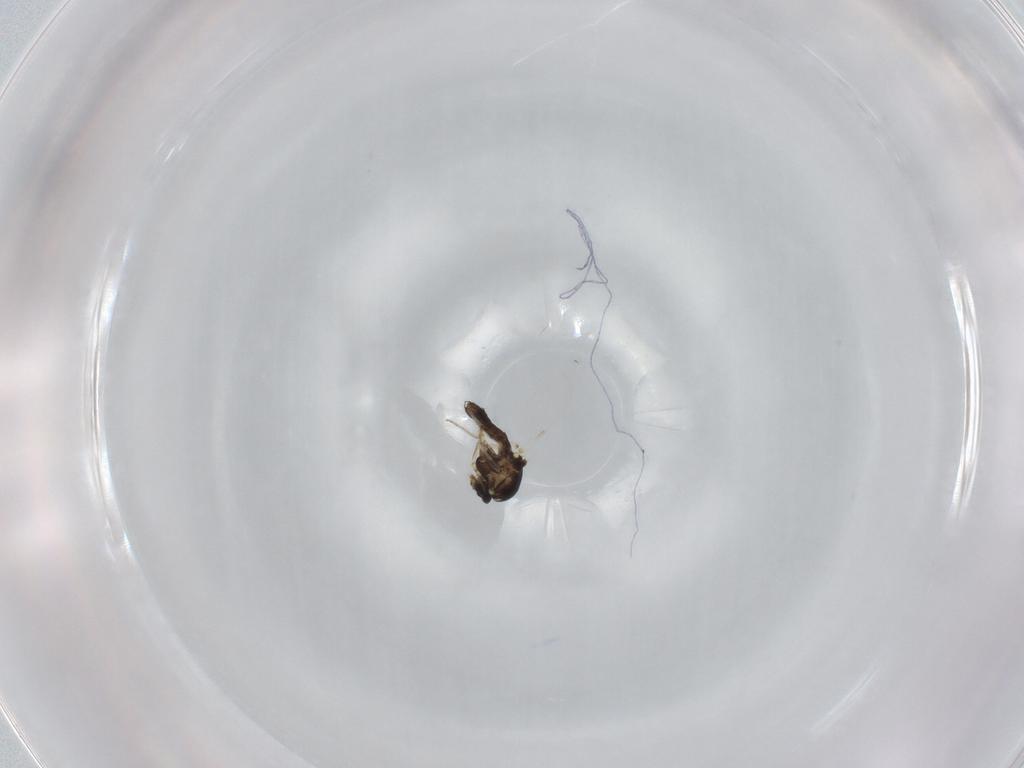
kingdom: Animalia
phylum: Arthropoda
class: Insecta
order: Diptera
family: Ceratopogonidae
